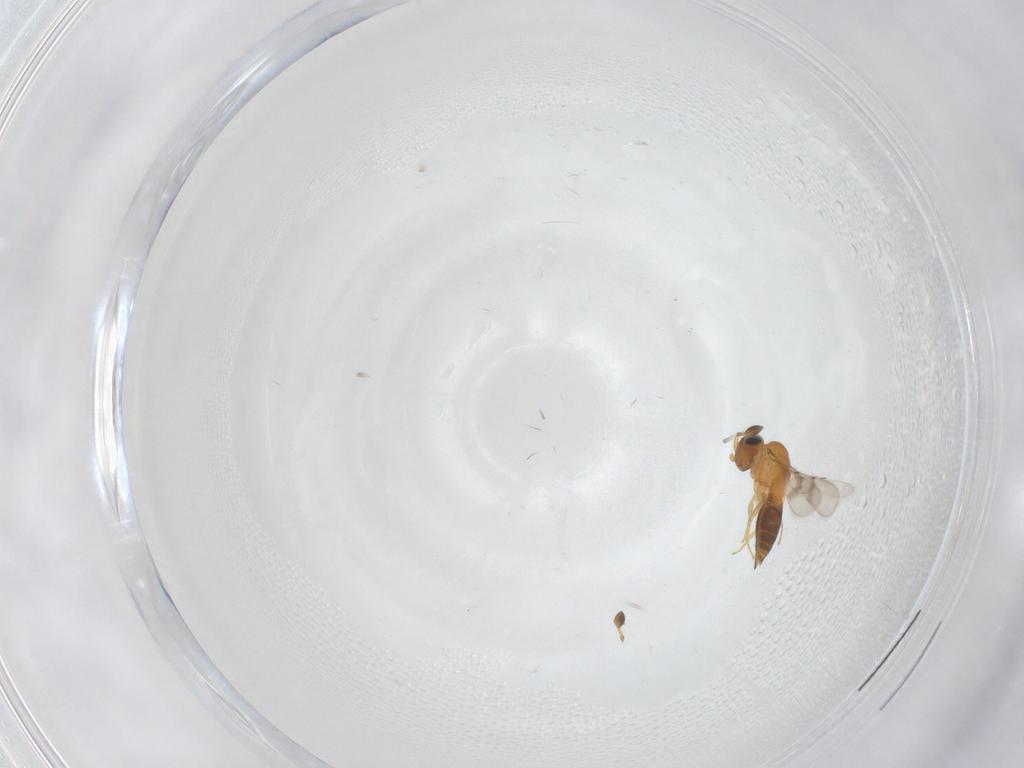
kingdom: Animalia
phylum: Arthropoda
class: Insecta
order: Hymenoptera
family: Scelionidae
